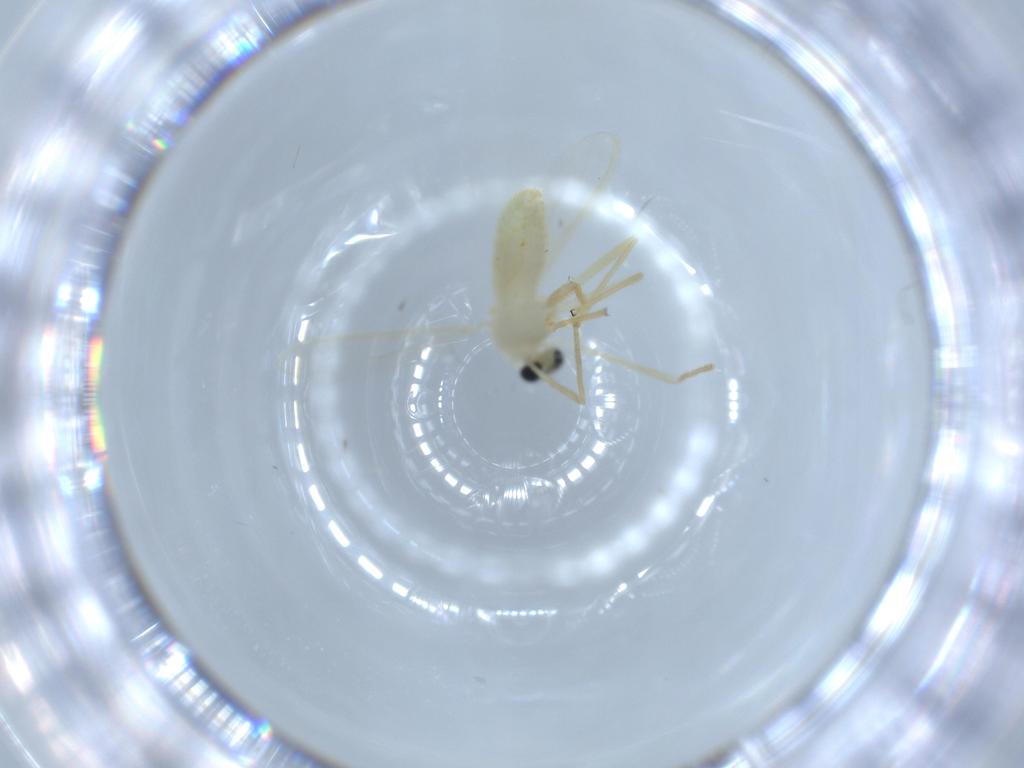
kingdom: Animalia
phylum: Arthropoda
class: Insecta
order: Diptera
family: Chironomidae
